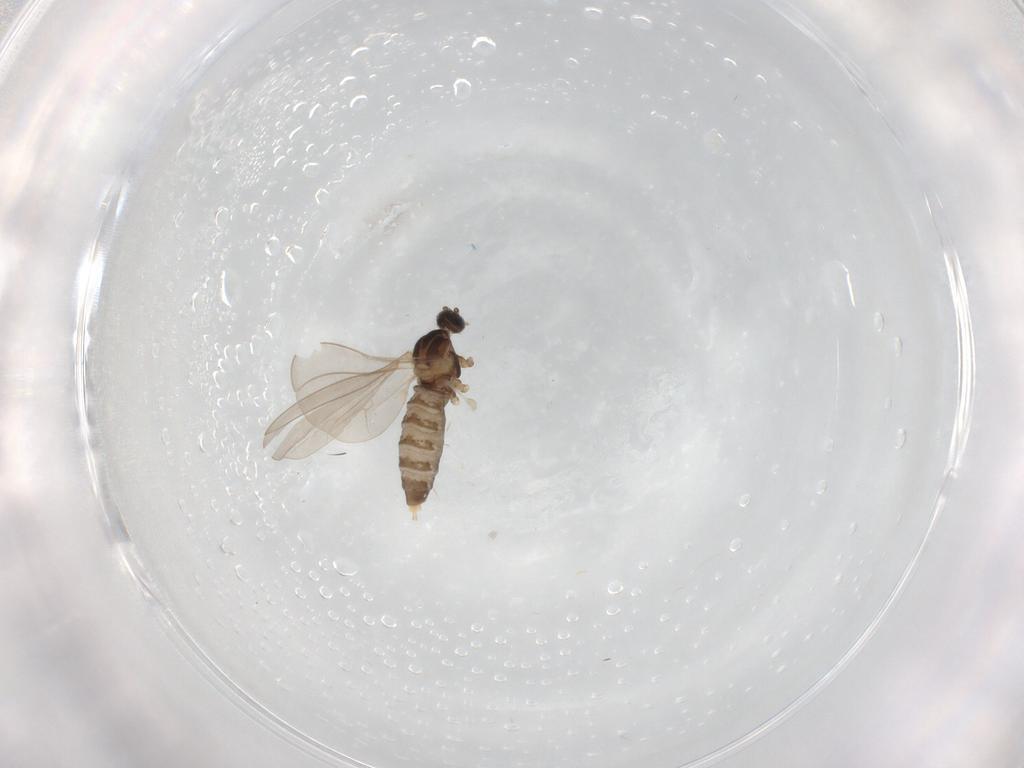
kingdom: Animalia
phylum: Arthropoda
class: Insecta
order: Diptera
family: Cecidomyiidae
